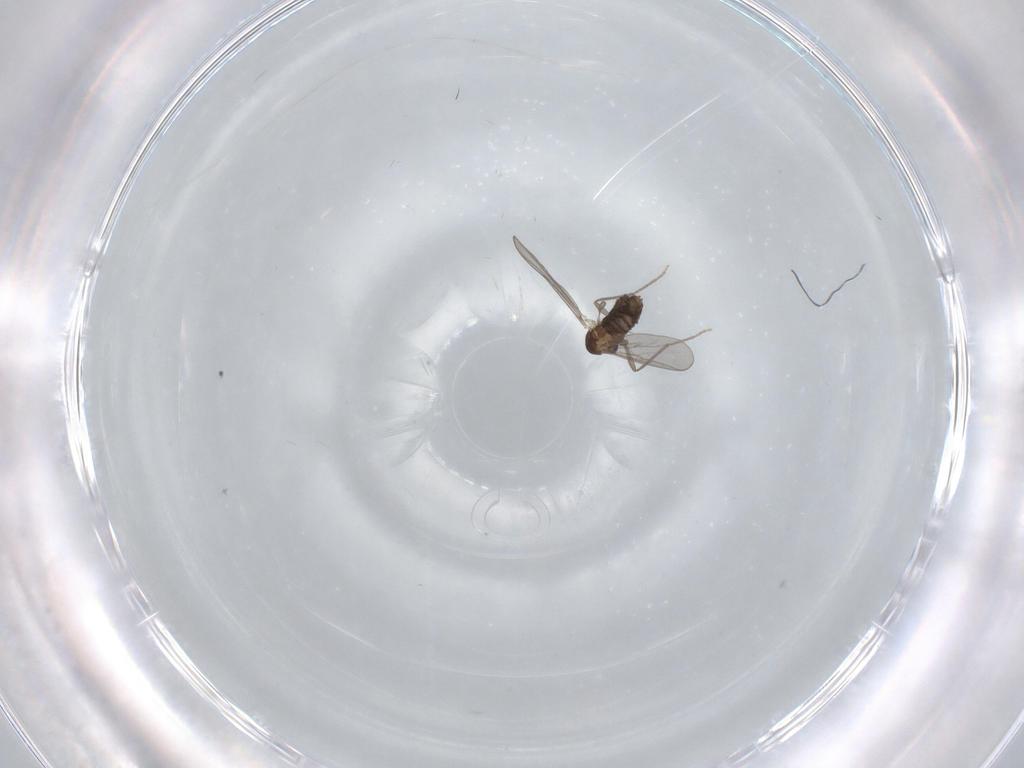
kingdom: Animalia
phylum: Arthropoda
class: Insecta
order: Diptera
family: Chironomidae
